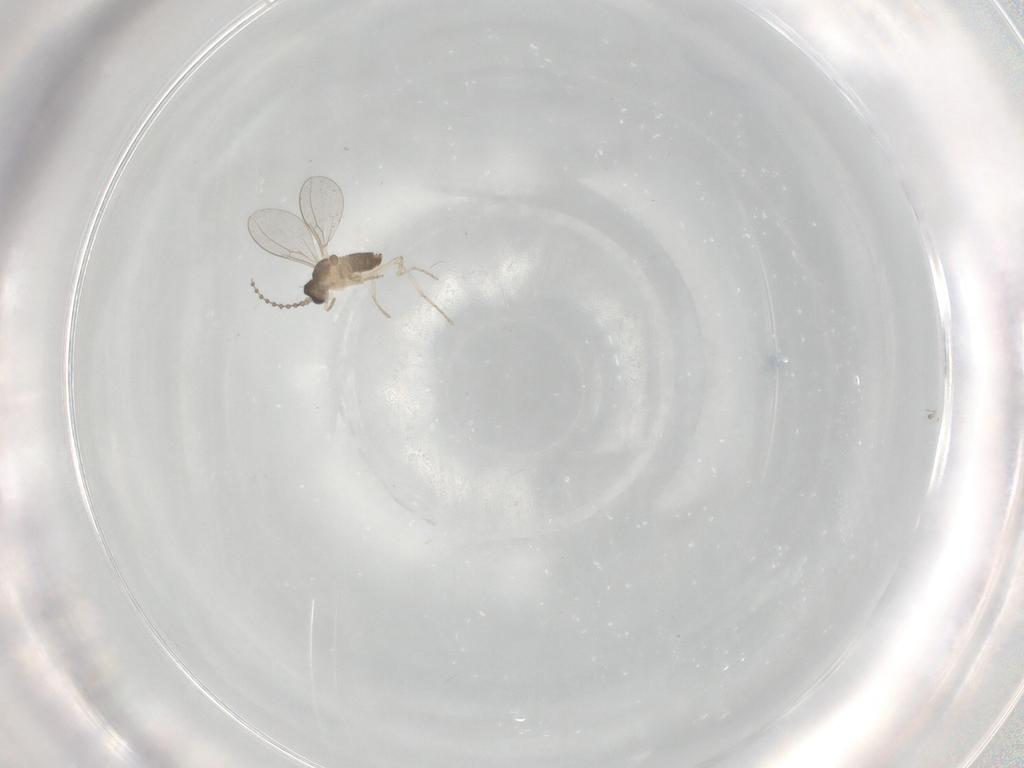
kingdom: Animalia
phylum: Arthropoda
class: Insecta
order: Diptera
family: Cecidomyiidae
